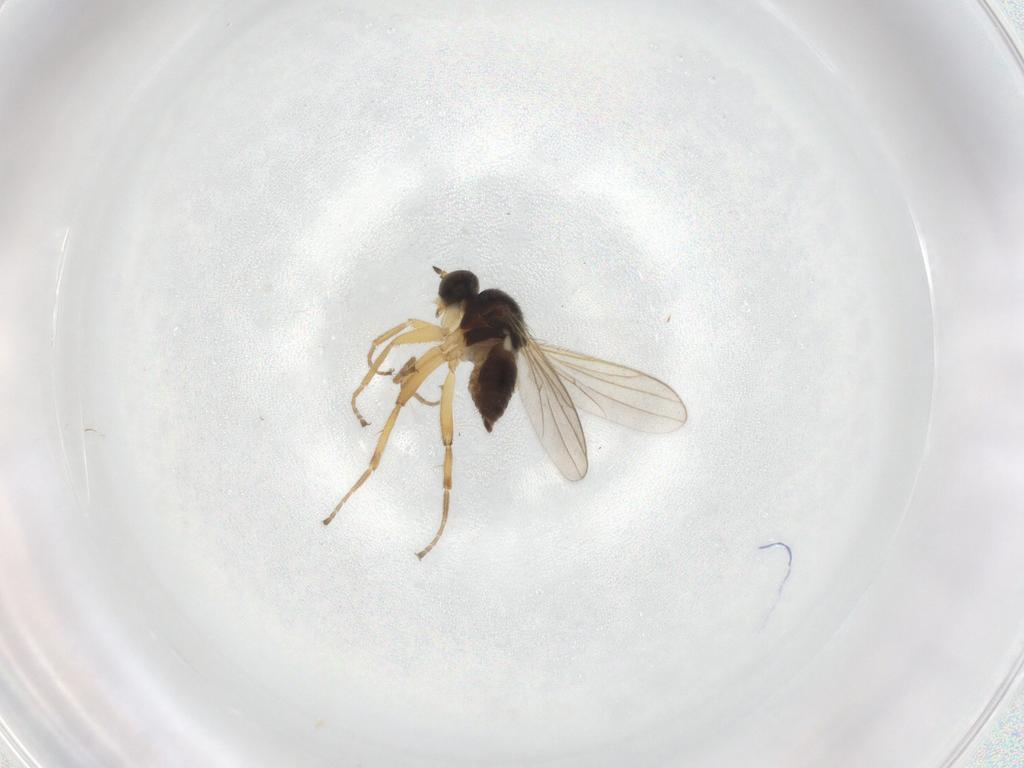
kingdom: Animalia
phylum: Arthropoda
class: Insecta
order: Diptera
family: Hybotidae
